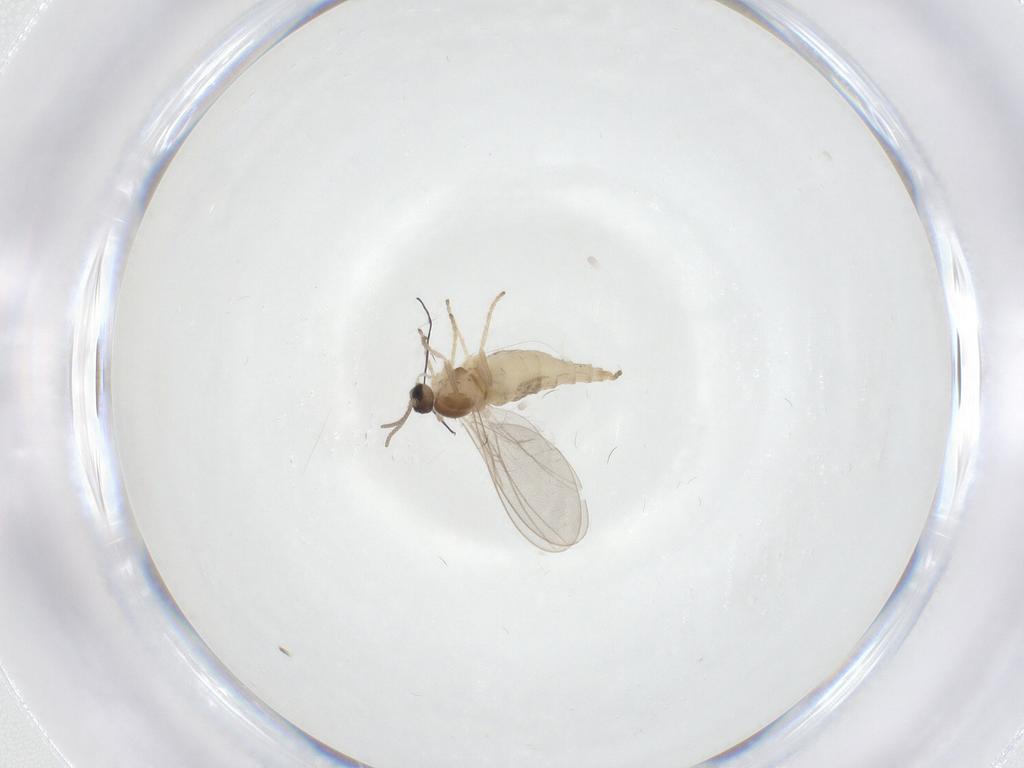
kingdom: Animalia
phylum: Arthropoda
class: Insecta
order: Diptera
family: Cecidomyiidae
